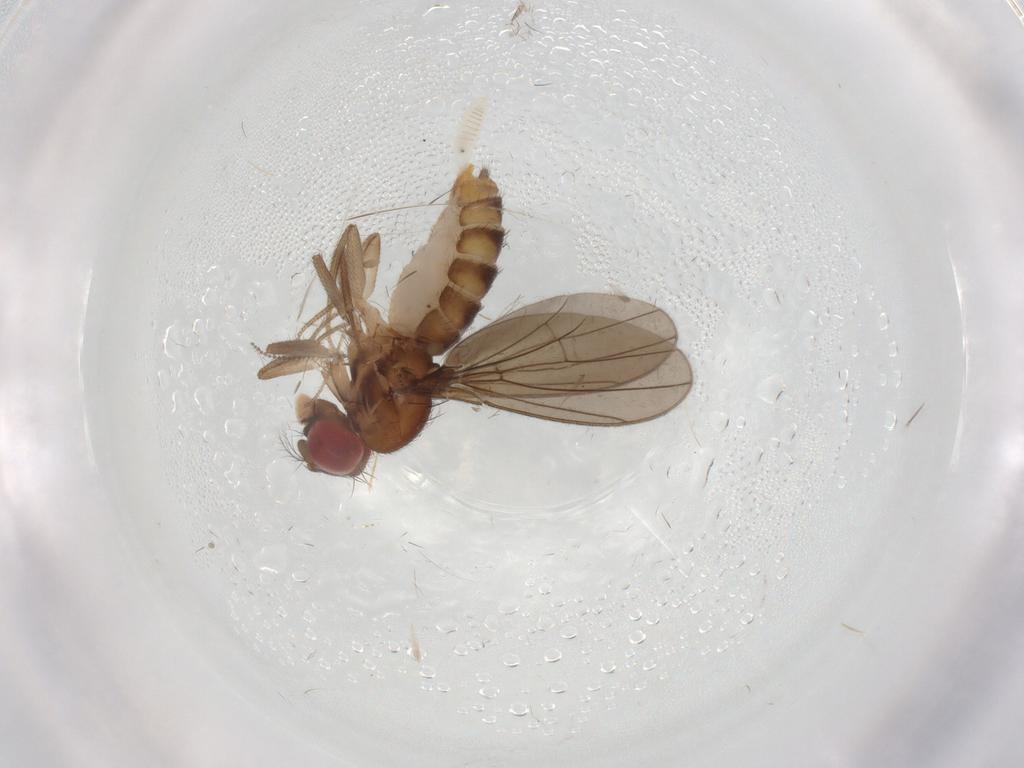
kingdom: Animalia
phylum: Arthropoda
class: Insecta
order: Diptera
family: Drosophilidae
